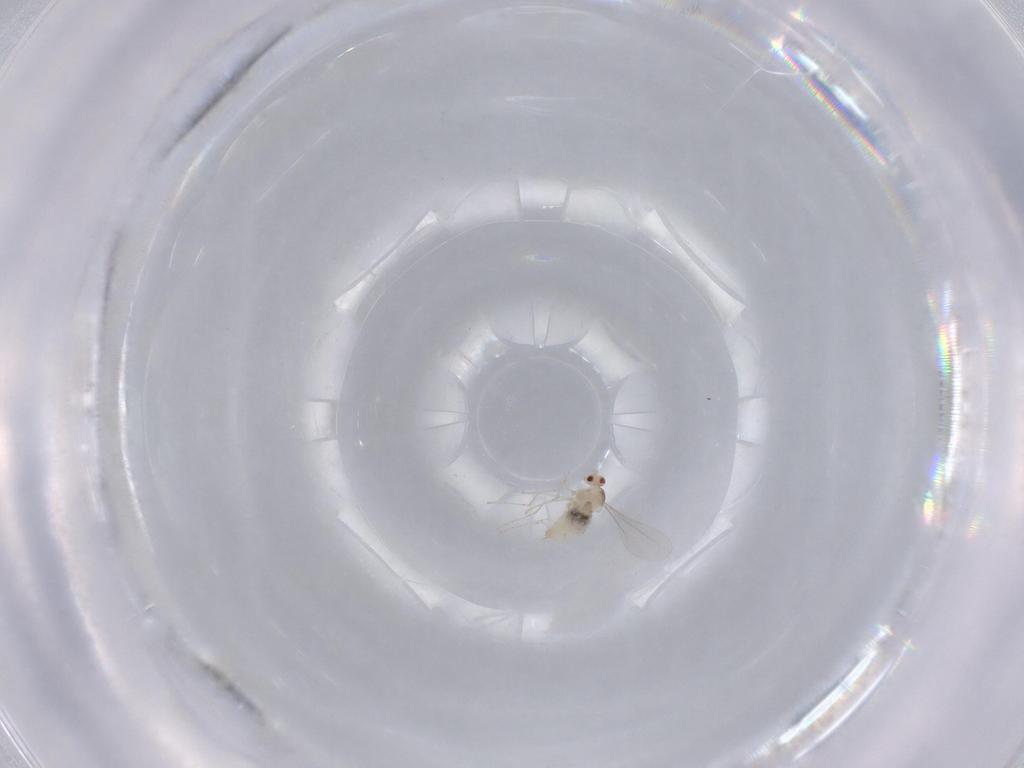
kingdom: Animalia
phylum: Arthropoda
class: Insecta
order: Diptera
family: Cecidomyiidae
